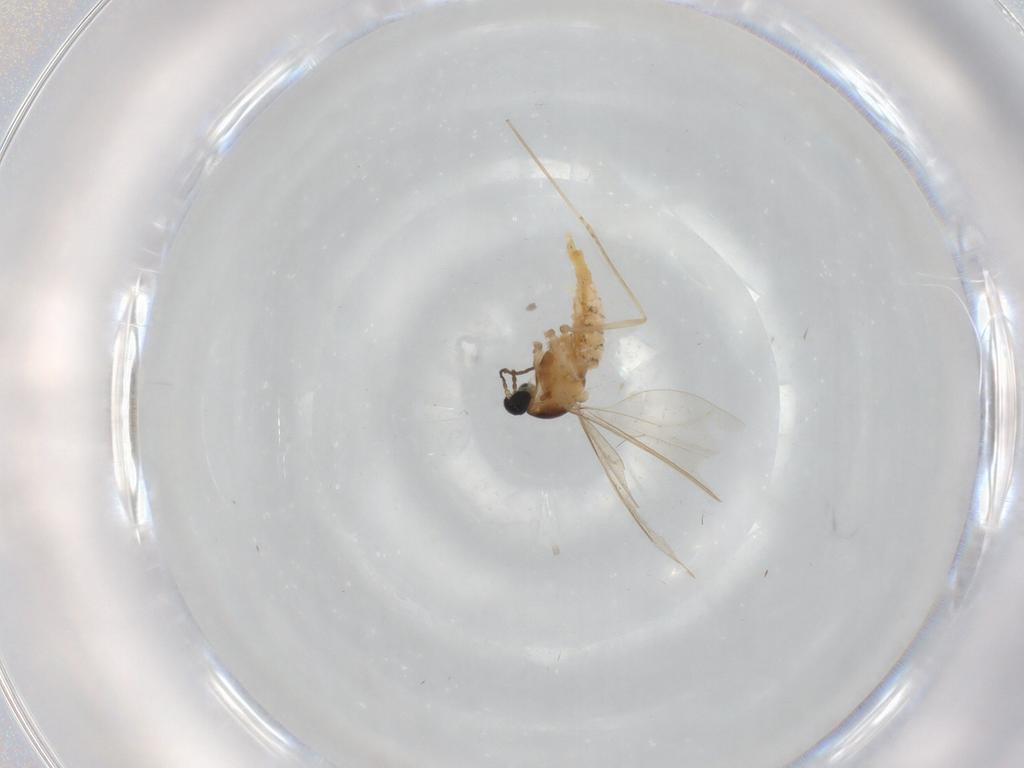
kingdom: Animalia
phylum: Arthropoda
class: Insecta
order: Diptera
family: Cecidomyiidae
